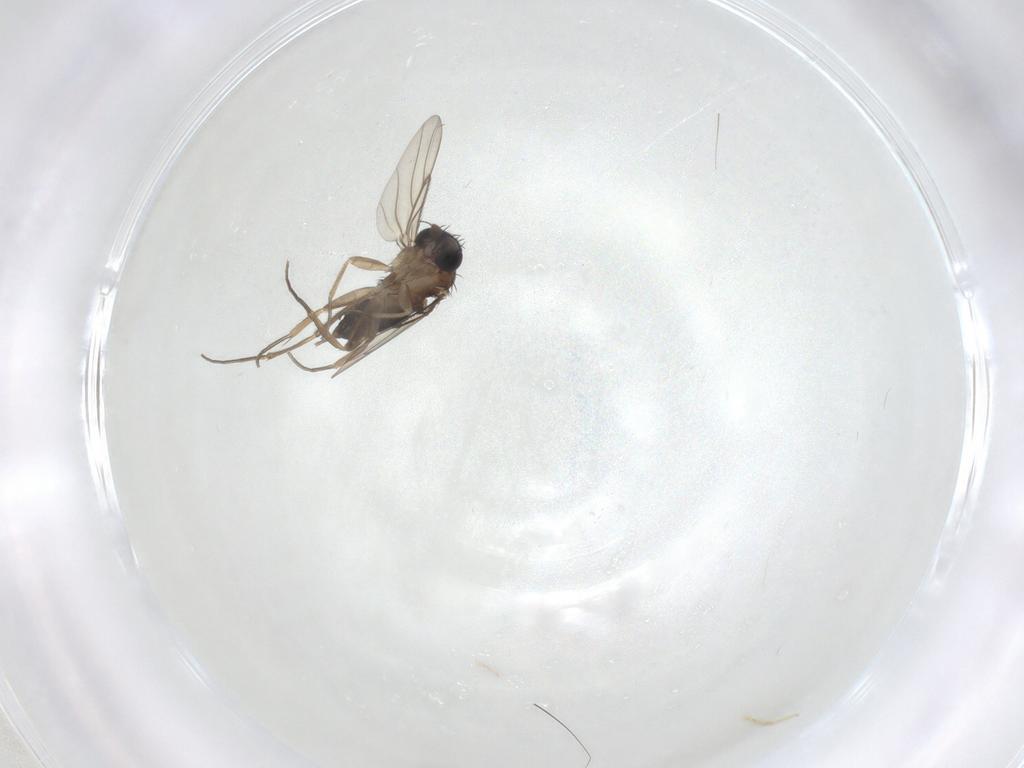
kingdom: Animalia
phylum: Arthropoda
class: Insecta
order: Diptera
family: Phoridae
